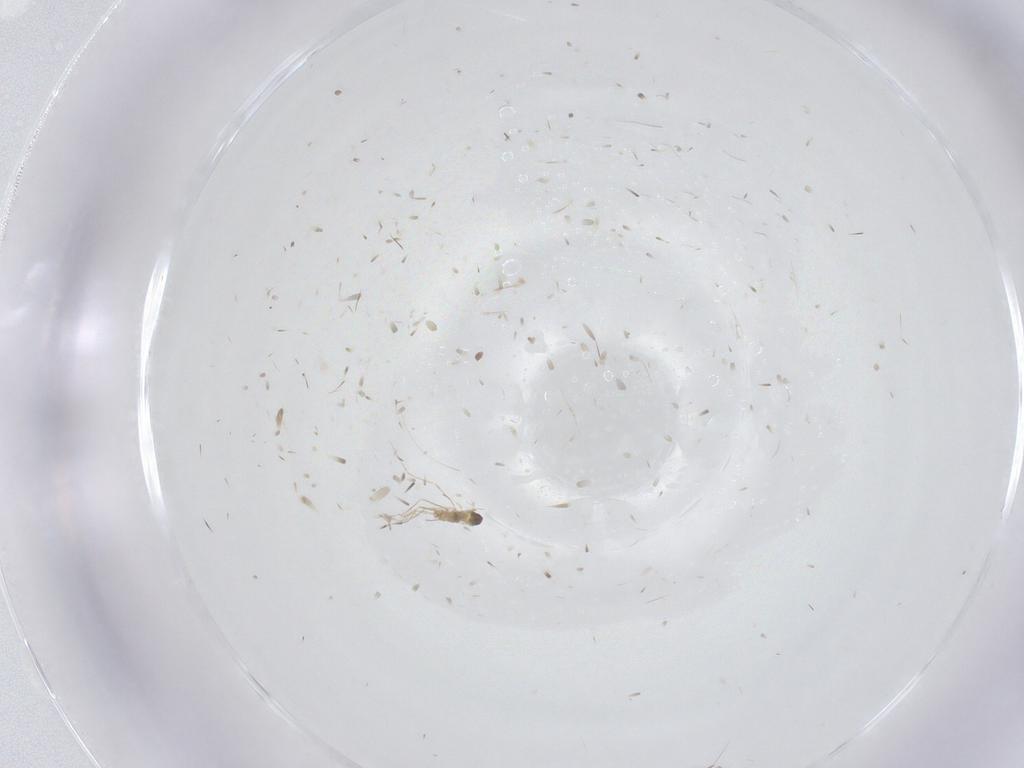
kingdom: Animalia
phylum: Arthropoda
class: Insecta
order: Diptera
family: Cecidomyiidae
